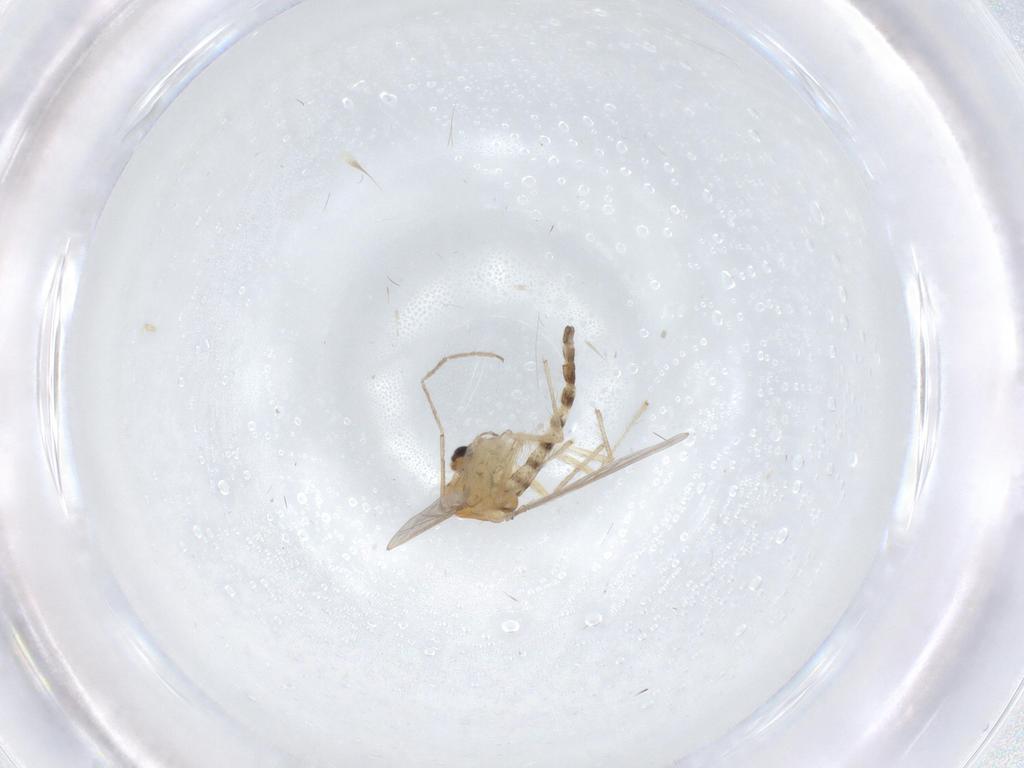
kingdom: Animalia
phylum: Arthropoda
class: Insecta
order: Diptera
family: Chironomidae
